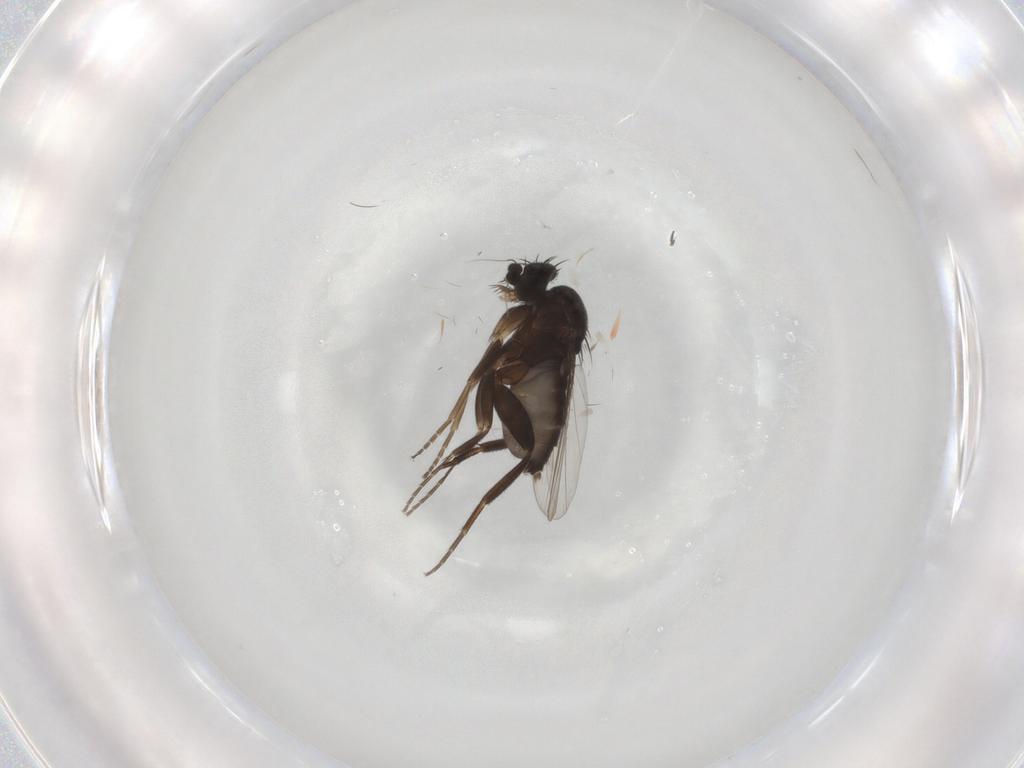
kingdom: Animalia
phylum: Arthropoda
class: Insecta
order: Diptera
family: Phoridae
